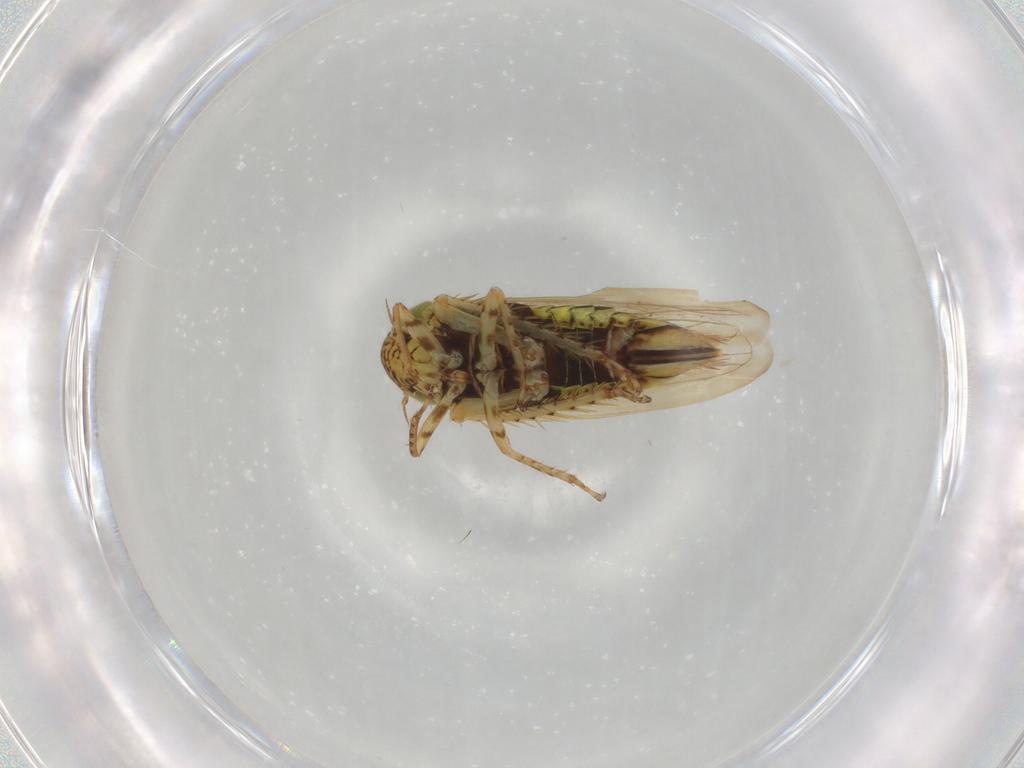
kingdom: Animalia
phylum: Arthropoda
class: Insecta
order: Hemiptera
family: Cicadellidae
